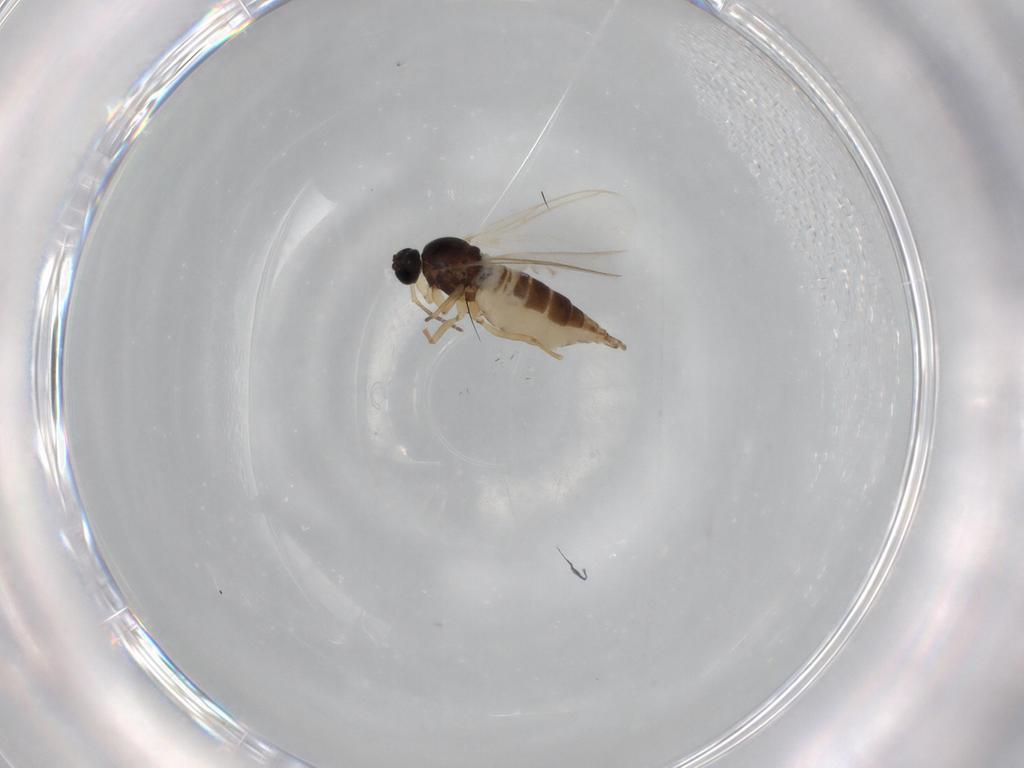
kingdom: Animalia
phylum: Arthropoda
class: Insecta
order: Diptera
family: Sciaridae
